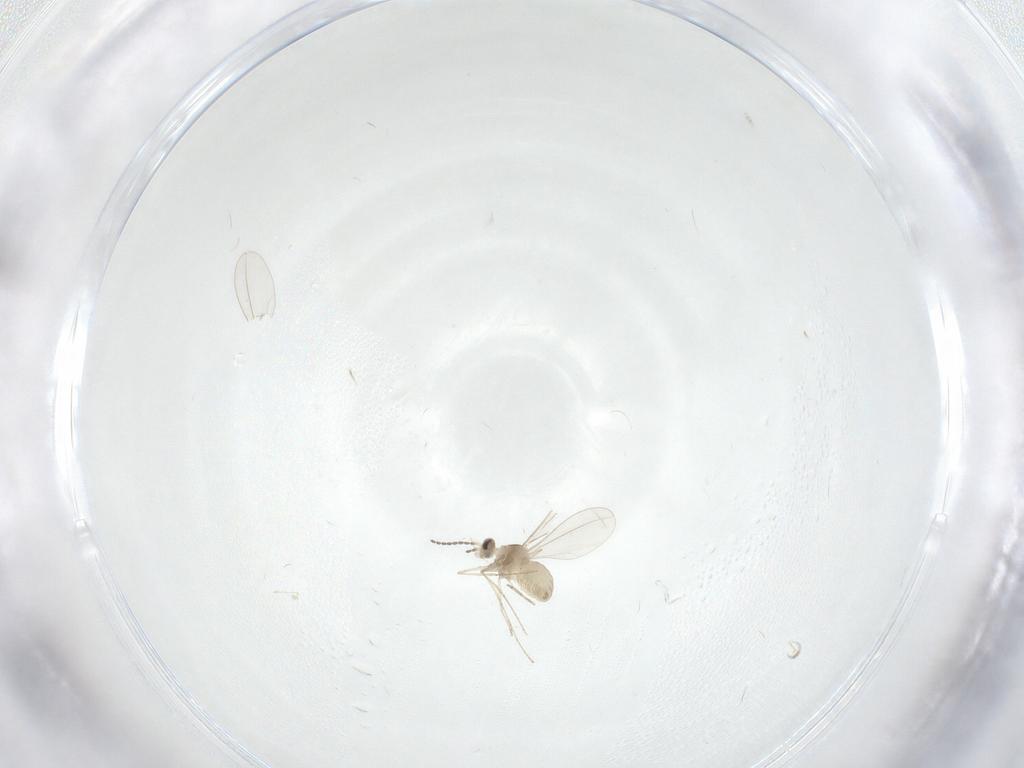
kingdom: Animalia
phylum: Arthropoda
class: Insecta
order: Diptera
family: Cecidomyiidae
